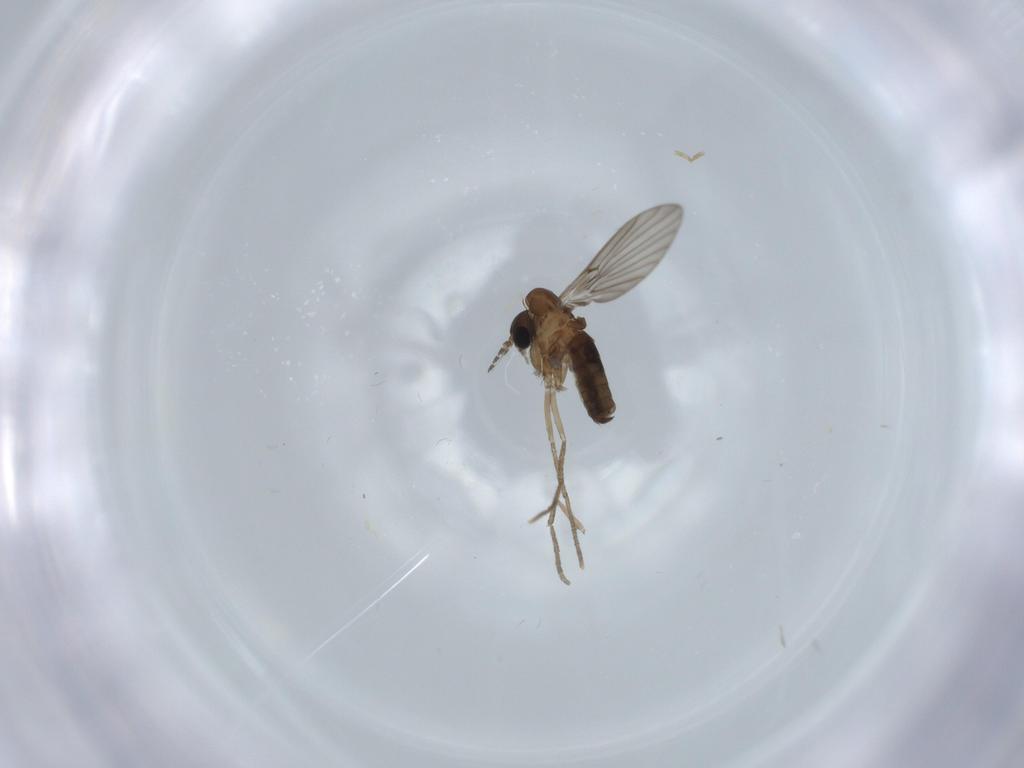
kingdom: Animalia
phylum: Arthropoda
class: Insecta
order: Diptera
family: Psychodidae
